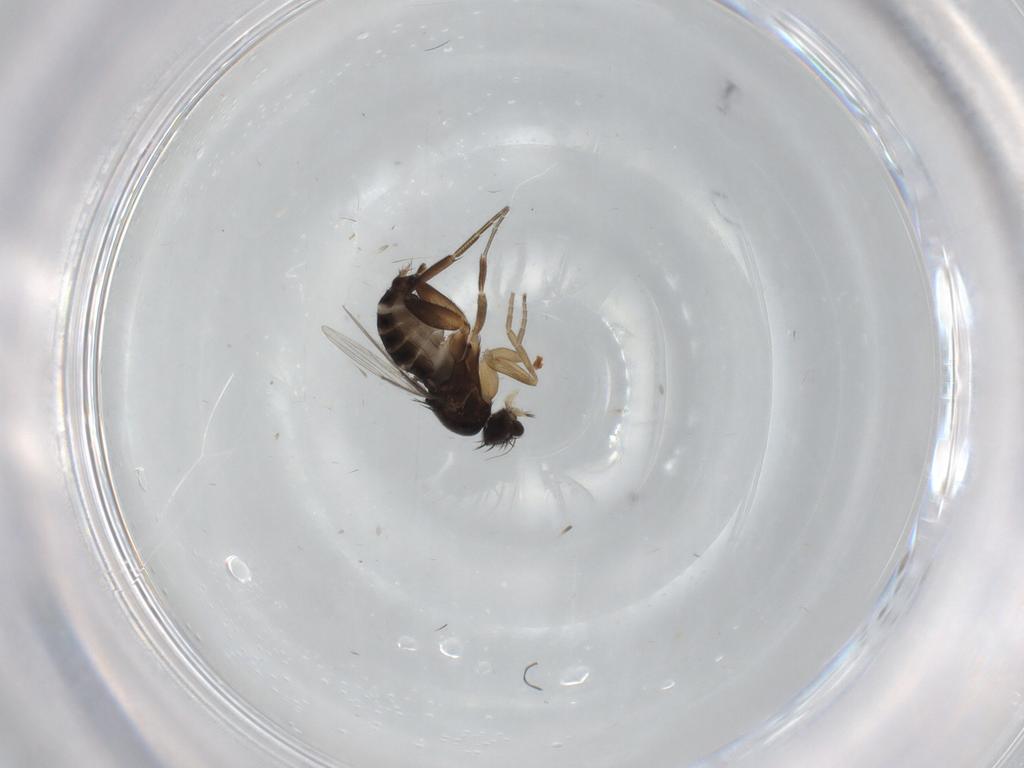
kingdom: Animalia
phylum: Arthropoda
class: Insecta
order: Diptera
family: Phoridae
